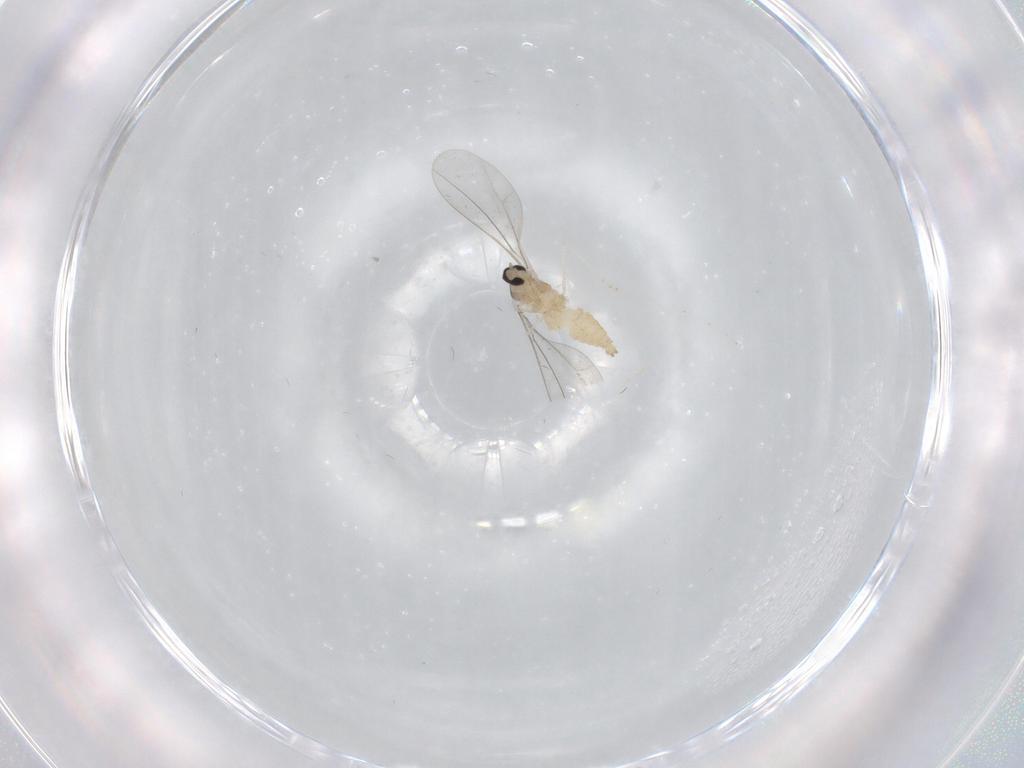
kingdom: Animalia
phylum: Arthropoda
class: Insecta
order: Diptera
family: Cecidomyiidae
